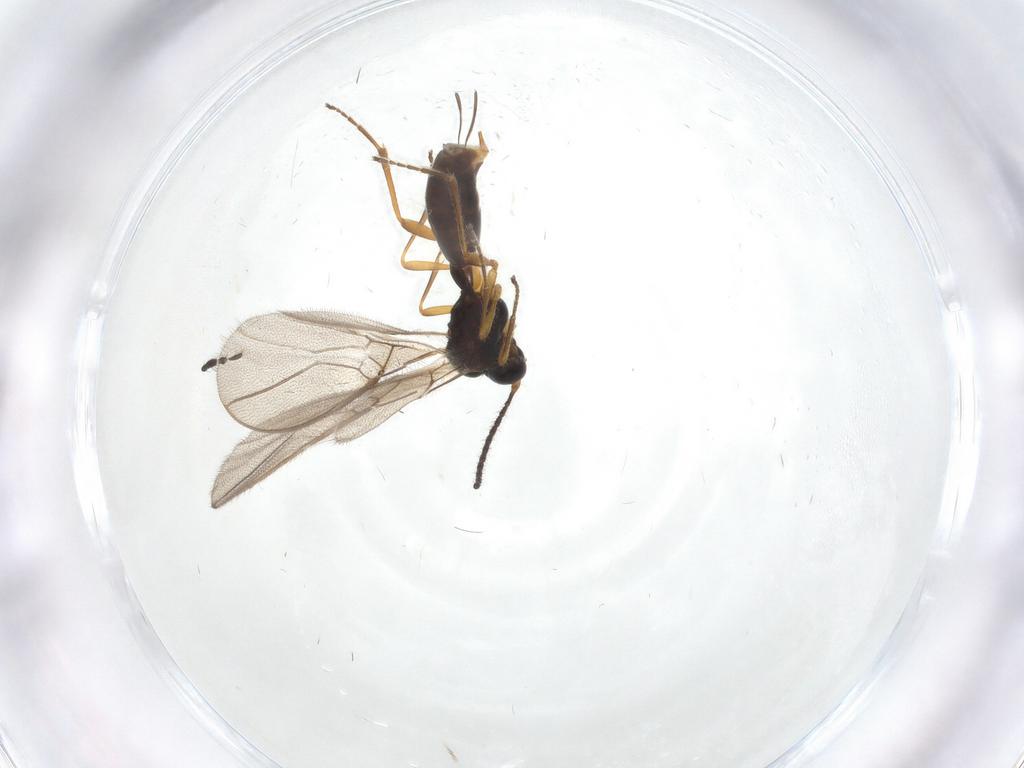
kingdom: Animalia
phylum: Arthropoda
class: Insecta
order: Hymenoptera
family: Braconidae
